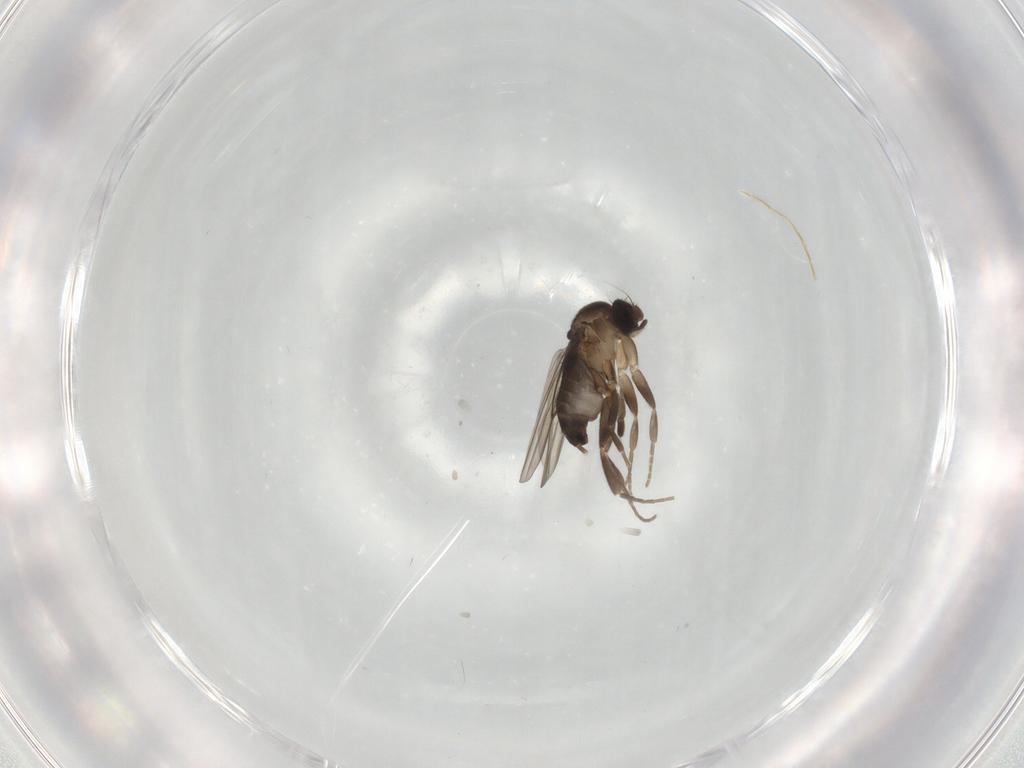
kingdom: Animalia
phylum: Arthropoda
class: Insecta
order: Diptera
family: Phoridae
